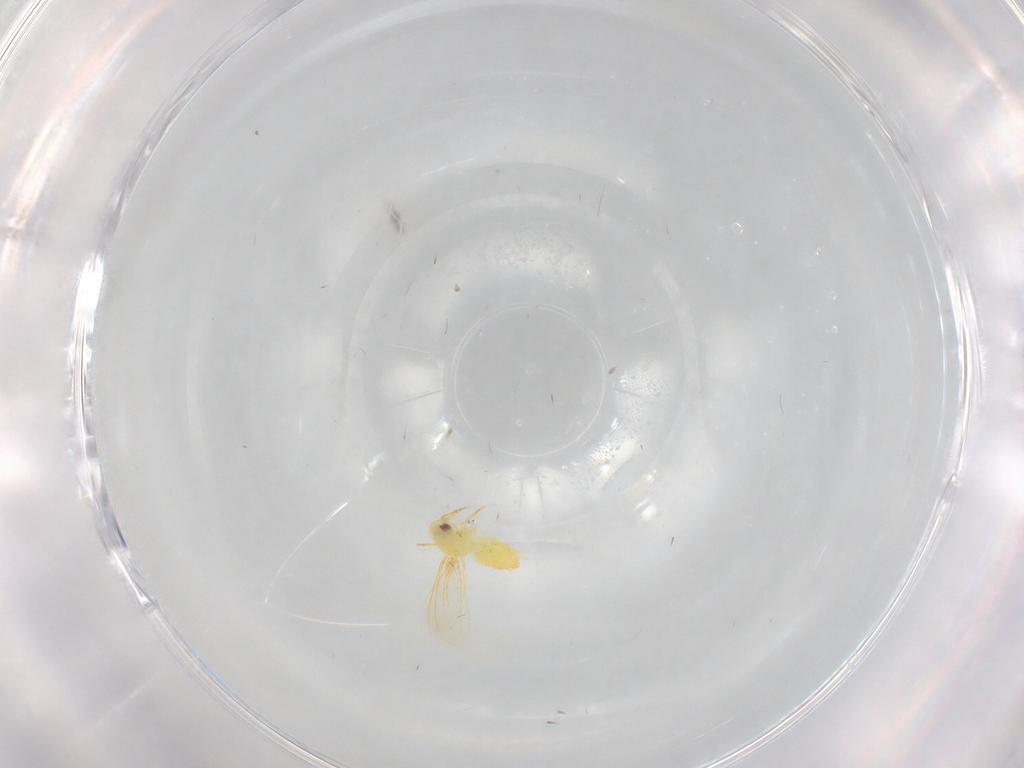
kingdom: Animalia
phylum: Arthropoda
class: Insecta
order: Hemiptera
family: Aleyrodidae
